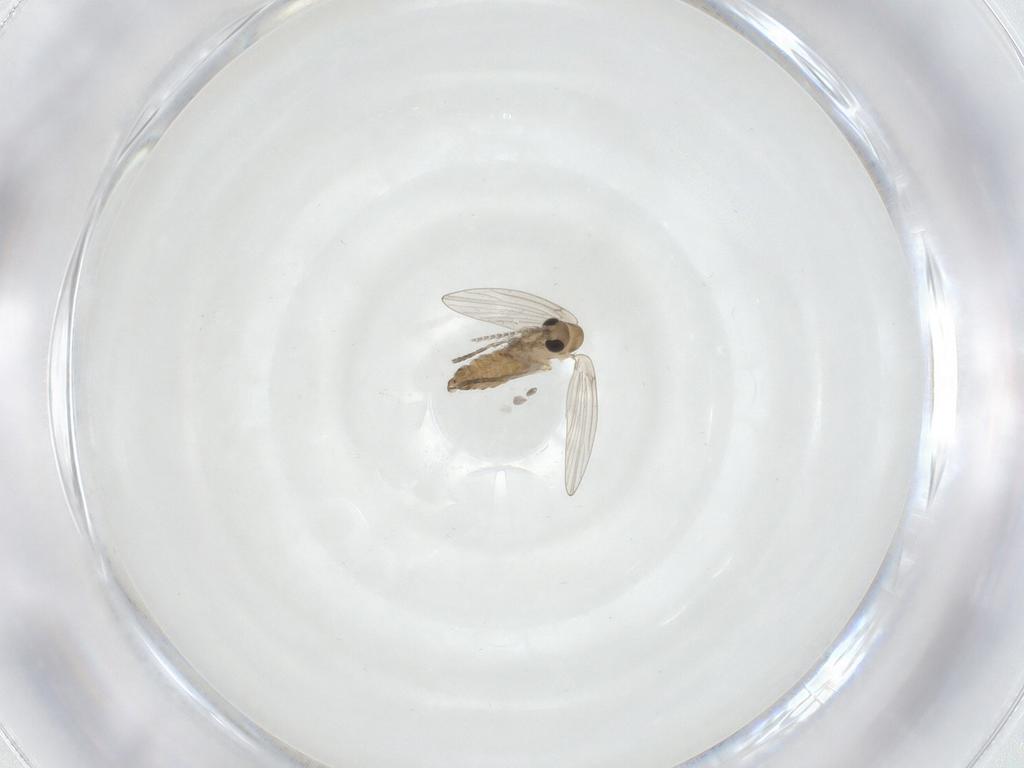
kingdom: Animalia
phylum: Arthropoda
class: Insecta
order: Diptera
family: Psychodidae
